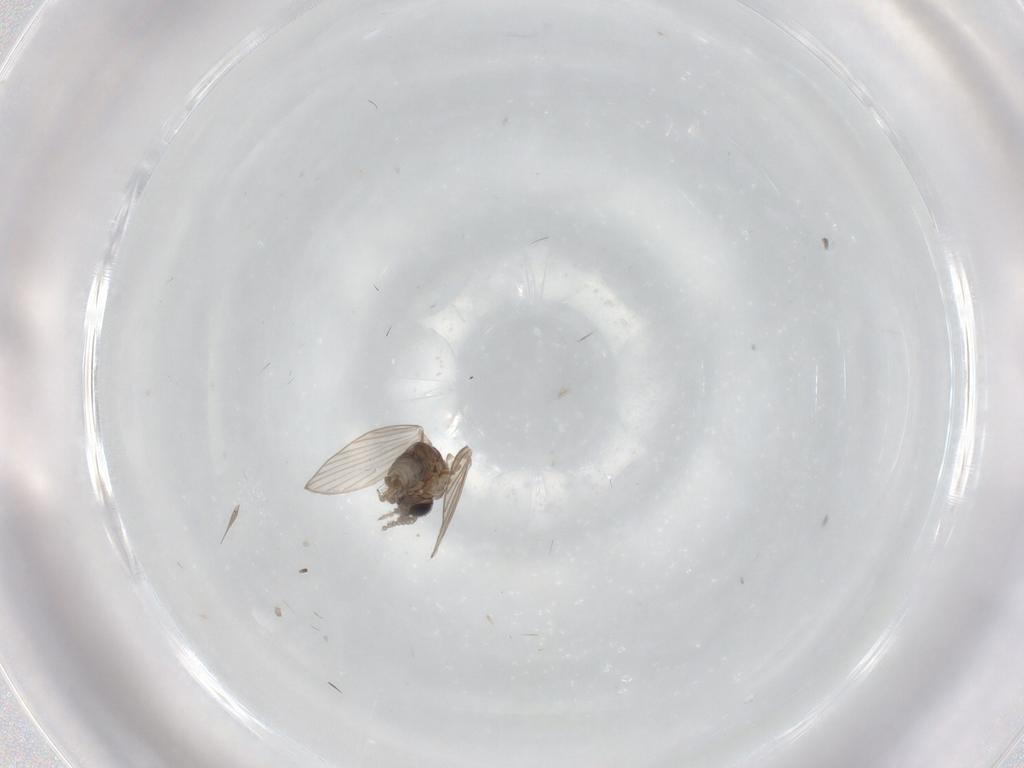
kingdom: Animalia
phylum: Arthropoda
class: Insecta
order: Diptera
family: Psychodidae
